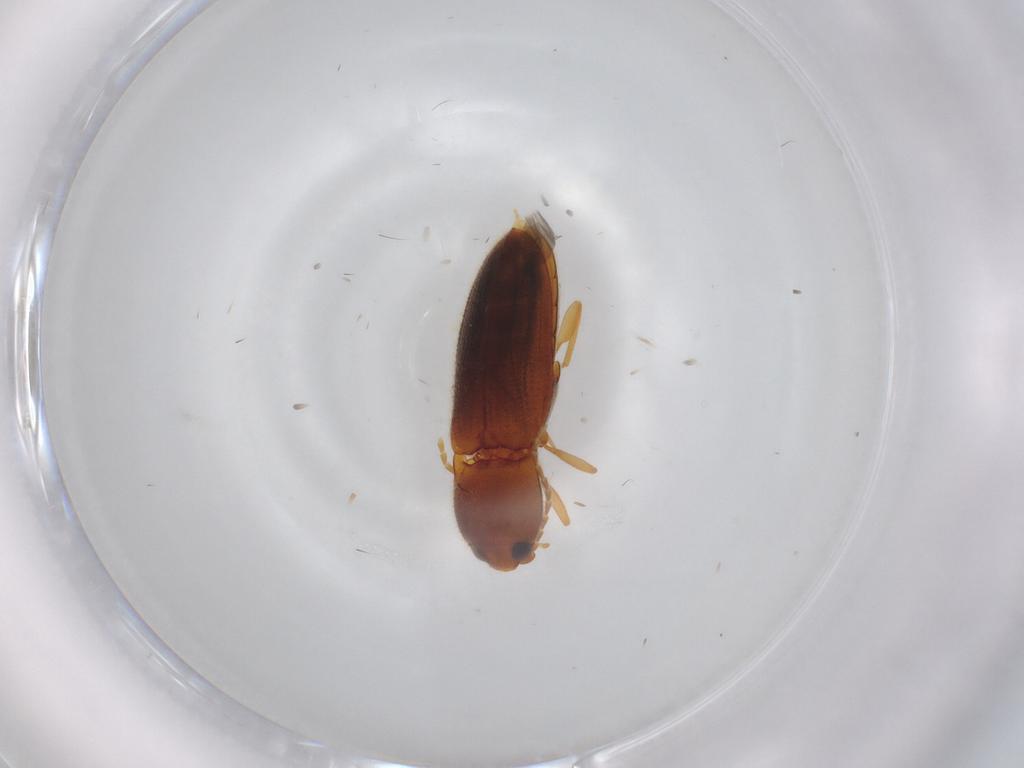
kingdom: Animalia
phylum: Arthropoda
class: Insecta
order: Coleoptera
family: Elateridae
